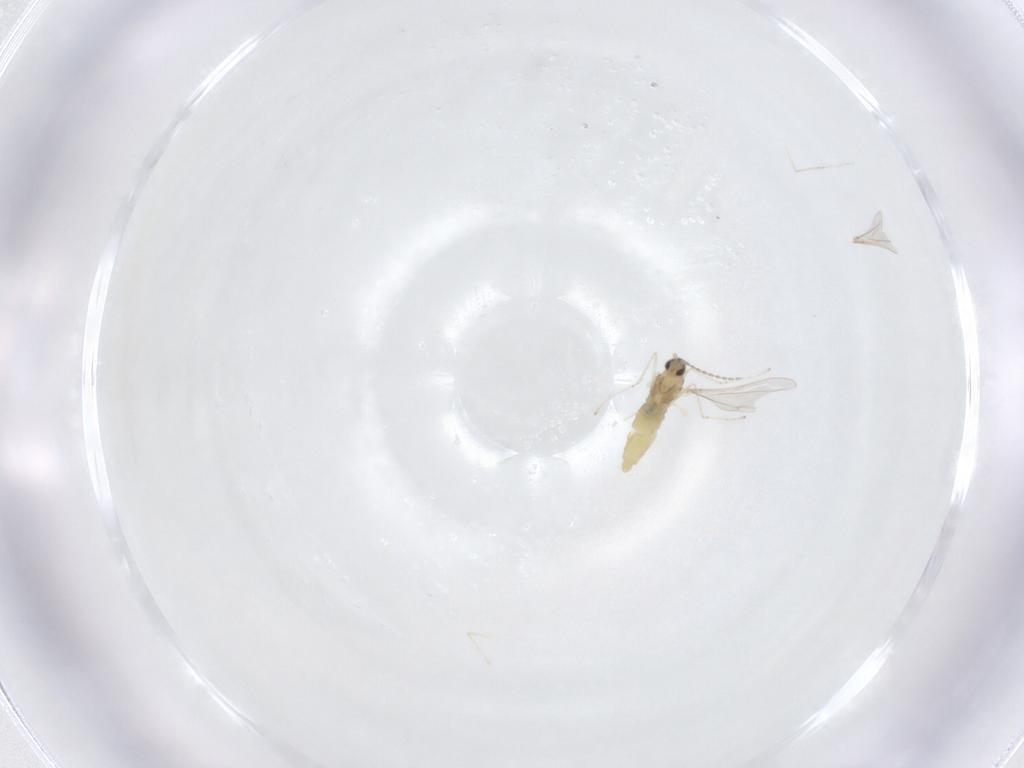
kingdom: Animalia
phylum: Arthropoda
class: Insecta
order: Diptera
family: Cecidomyiidae
